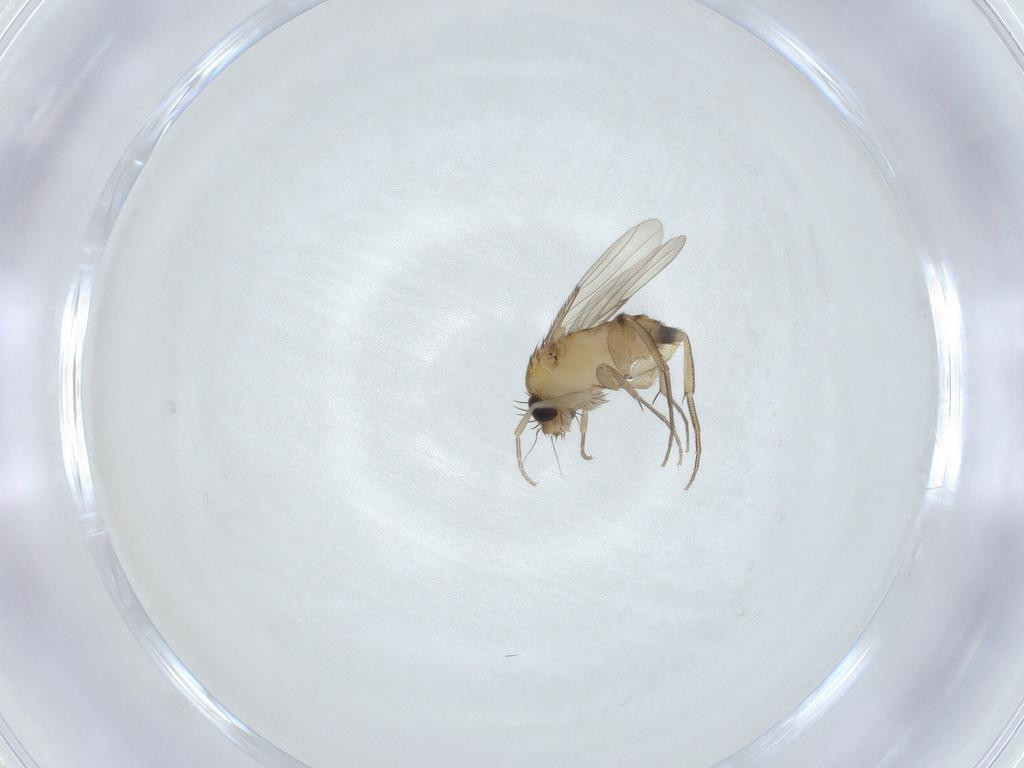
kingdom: Animalia
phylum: Arthropoda
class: Insecta
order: Diptera
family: Phoridae
